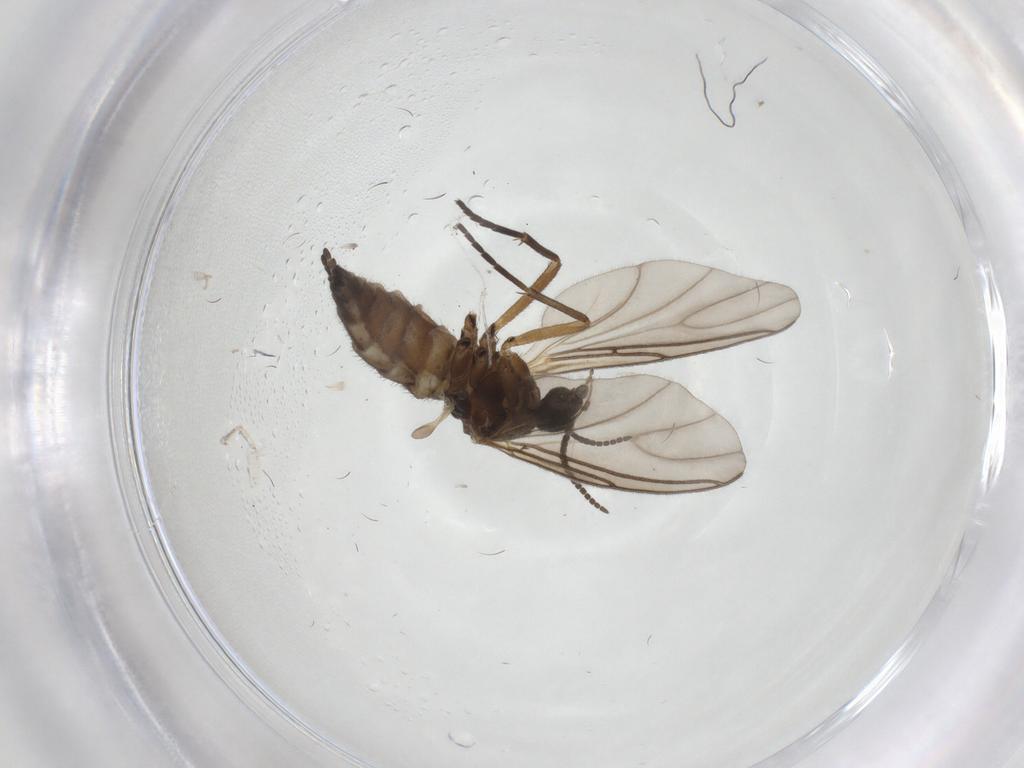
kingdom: Animalia
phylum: Arthropoda
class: Insecta
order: Diptera
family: Sciaridae
